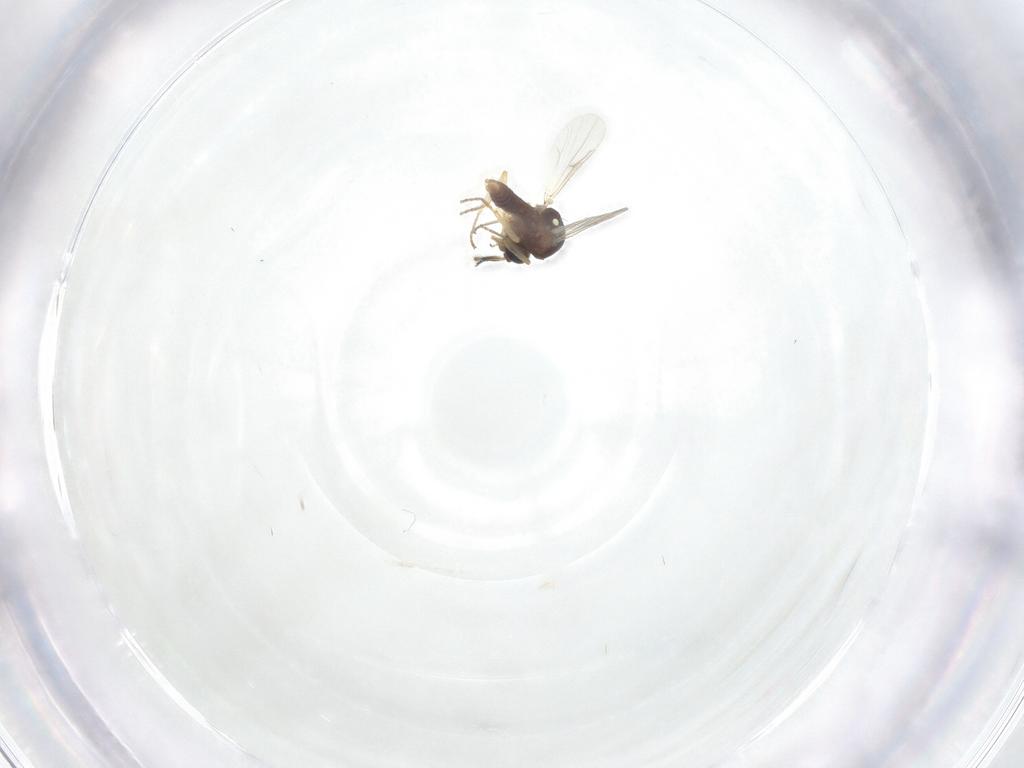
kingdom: Animalia
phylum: Arthropoda
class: Insecta
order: Diptera
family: Ceratopogonidae
